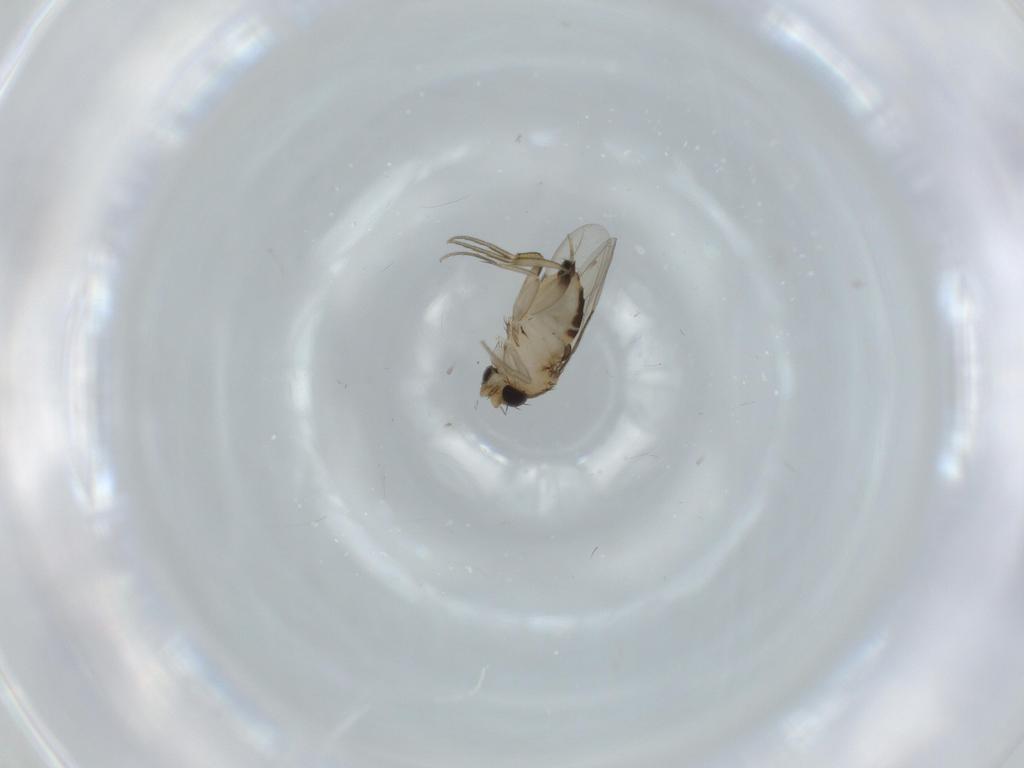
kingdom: Animalia
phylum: Arthropoda
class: Insecta
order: Diptera
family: Phoridae
